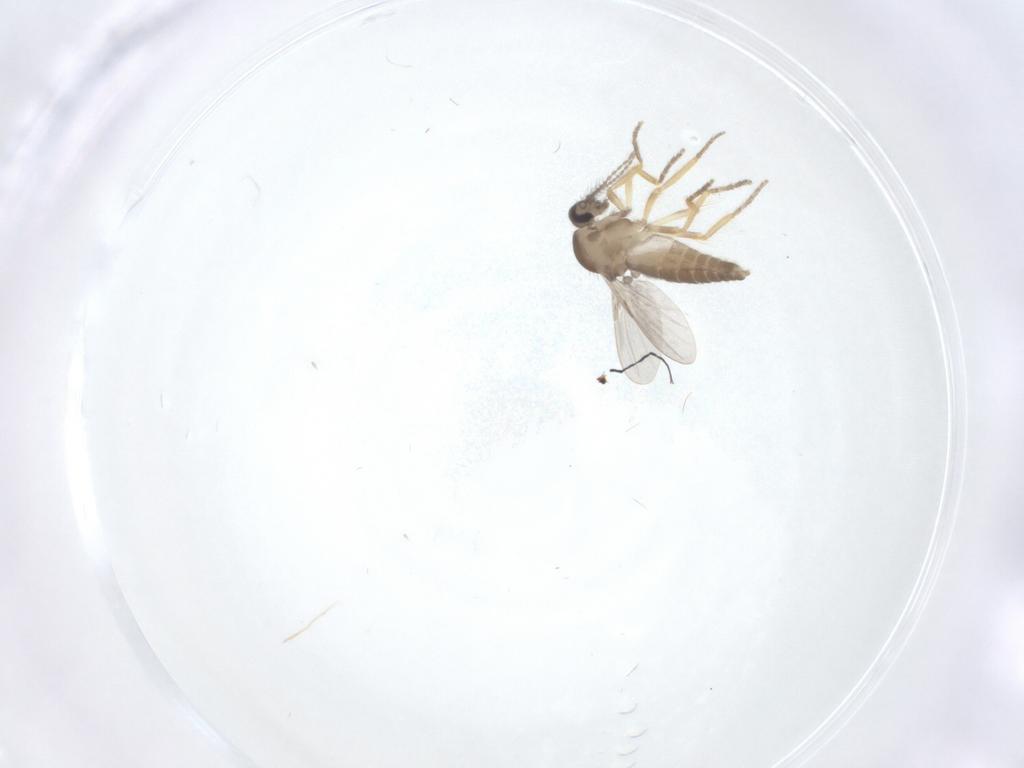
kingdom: Animalia
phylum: Arthropoda
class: Insecta
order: Diptera
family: Ceratopogonidae
